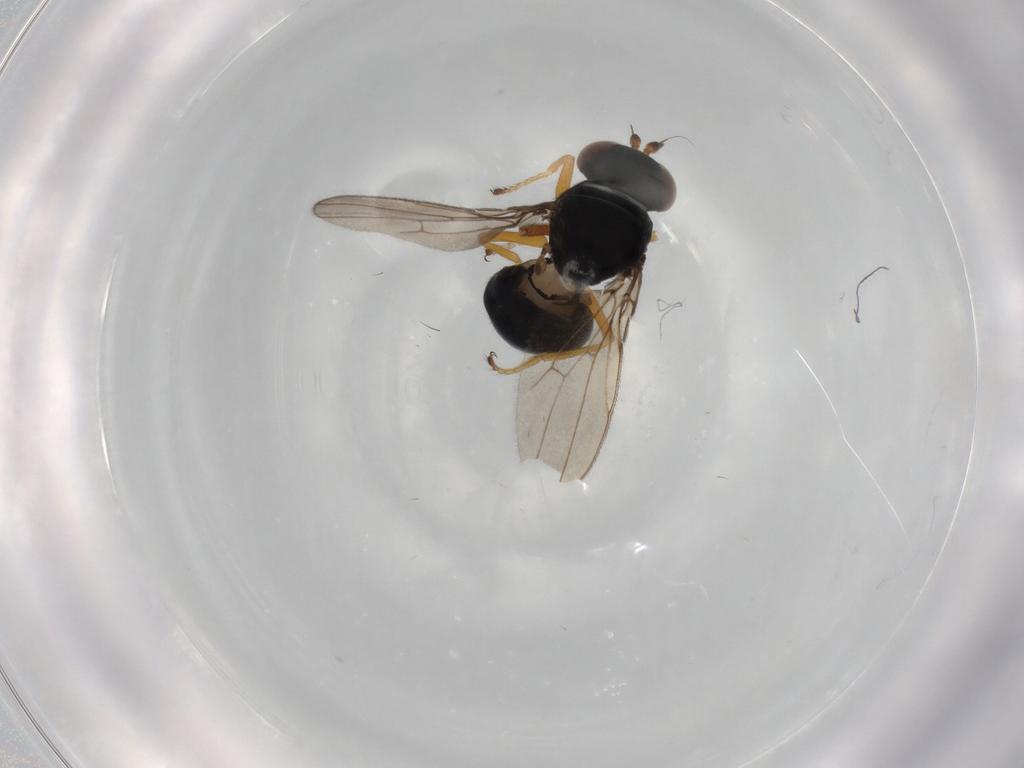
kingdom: Animalia
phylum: Arthropoda
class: Insecta
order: Diptera
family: Ephydridae
